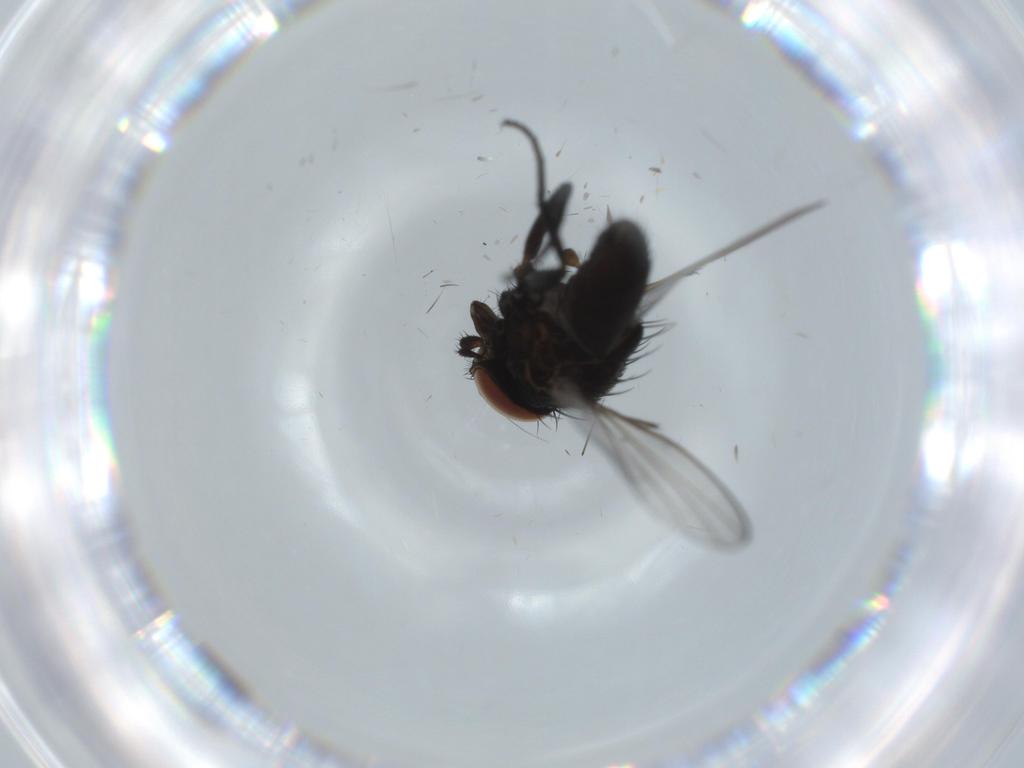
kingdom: Animalia
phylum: Arthropoda
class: Insecta
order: Diptera
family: Milichiidae
